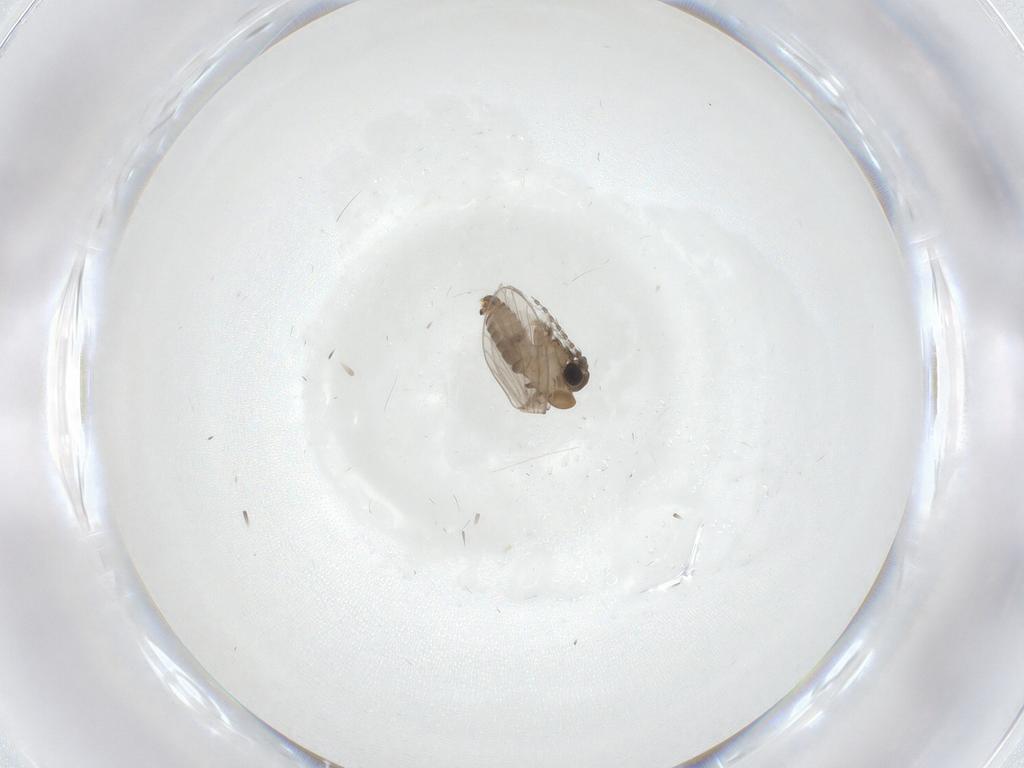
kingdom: Animalia
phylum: Arthropoda
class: Insecta
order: Diptera
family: Psychodidae
